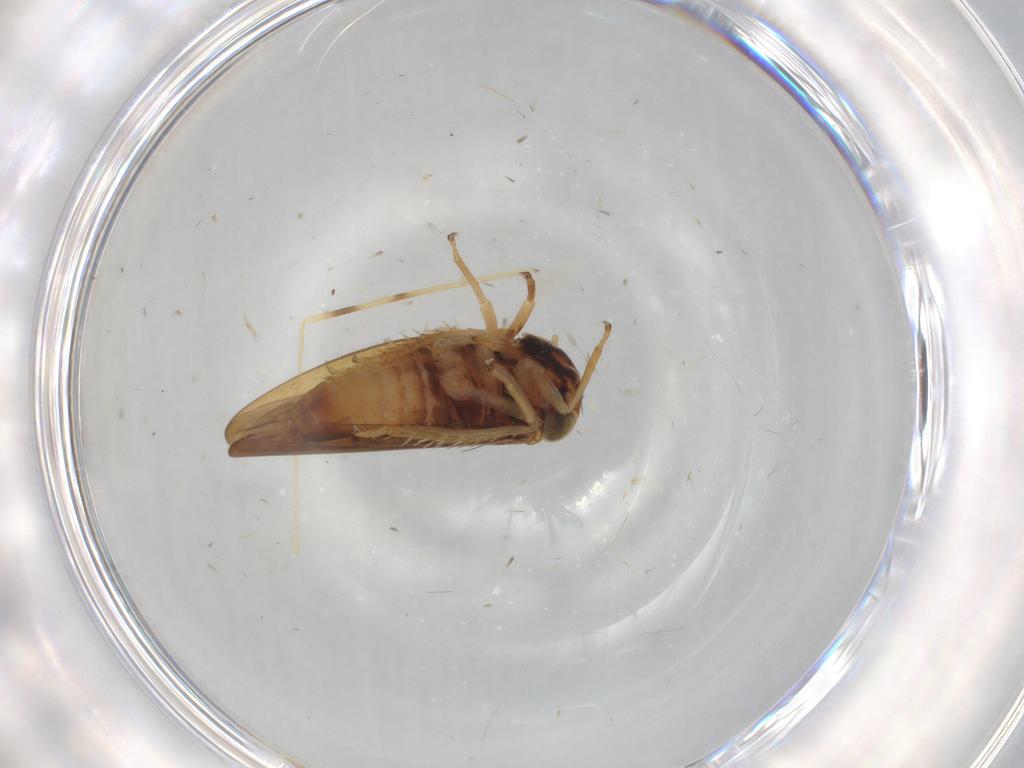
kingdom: Animalia
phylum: Arthropoda
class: Insecta
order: Hemiptera
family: Cicadellidae
